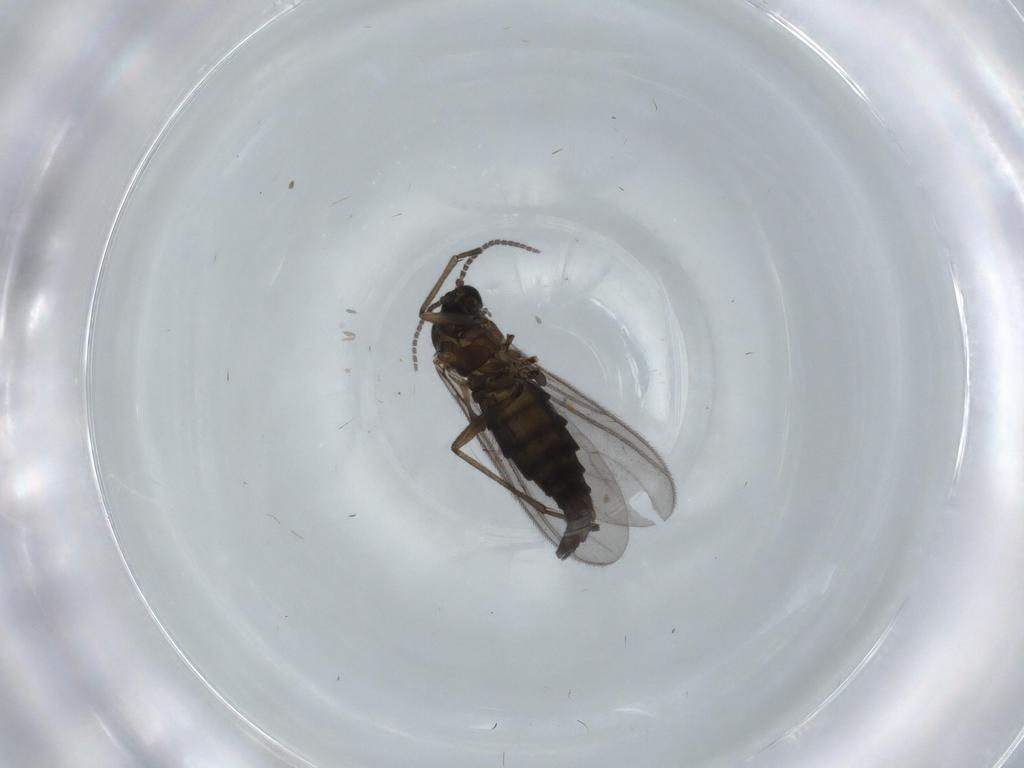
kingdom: Animalia
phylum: Arthropoda
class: Insecta
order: Diptera
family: Sciaridae
